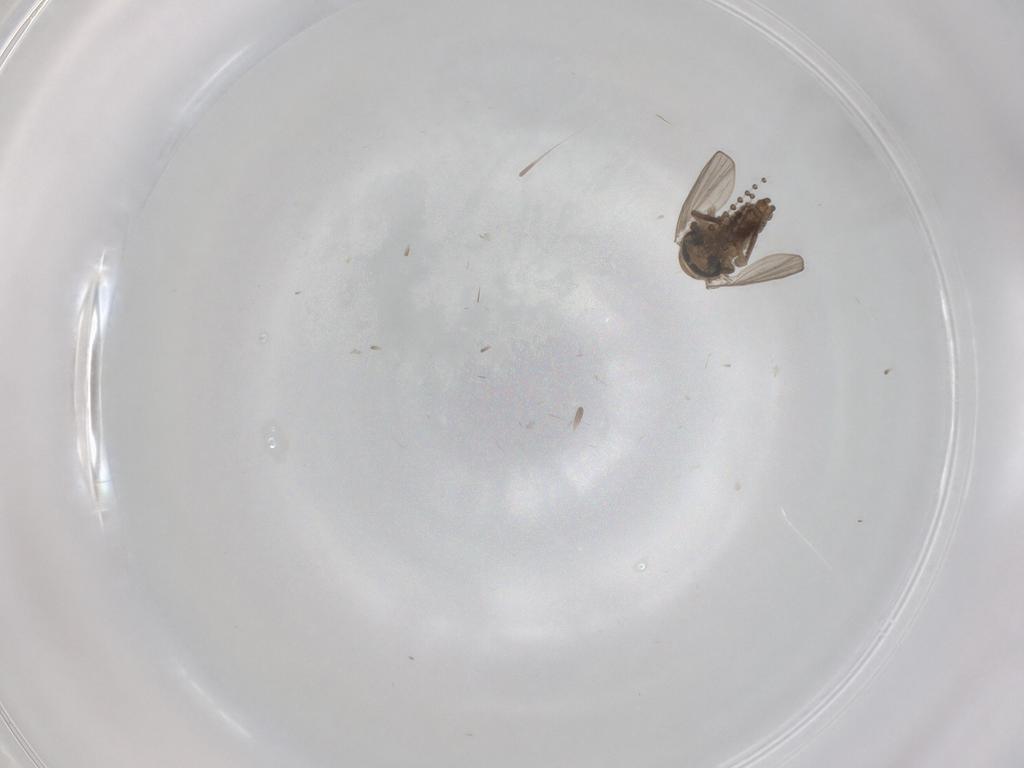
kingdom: Animalia
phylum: Arthropoda
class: Insecta
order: Diptera
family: Psychodidae
